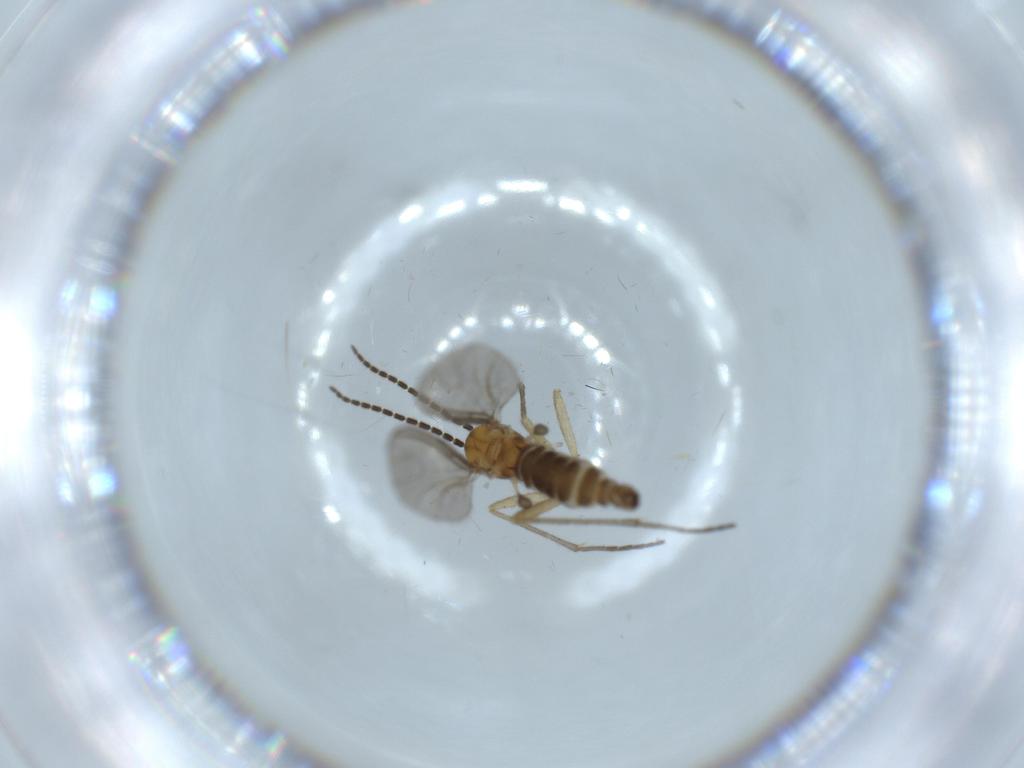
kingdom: Animalia
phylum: Arthropoda
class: Insecta
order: Diptera
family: Sciaridae
